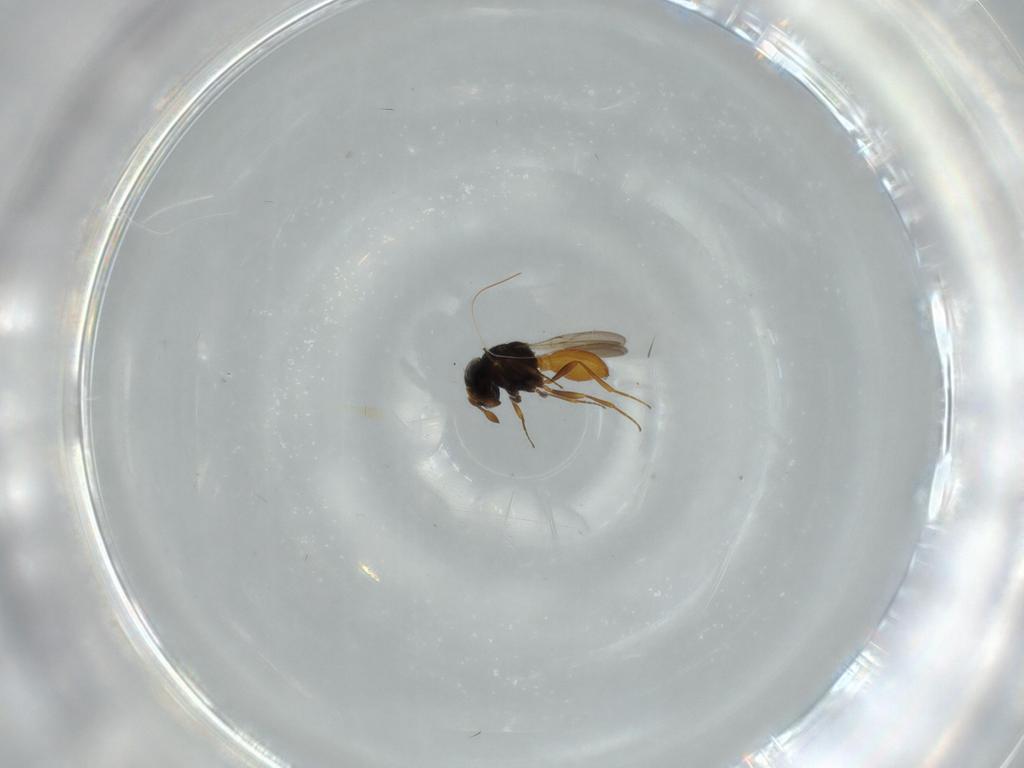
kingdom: Animalia
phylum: Arthropoda
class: Insecta
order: Hymenoptera
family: Scelionidae
